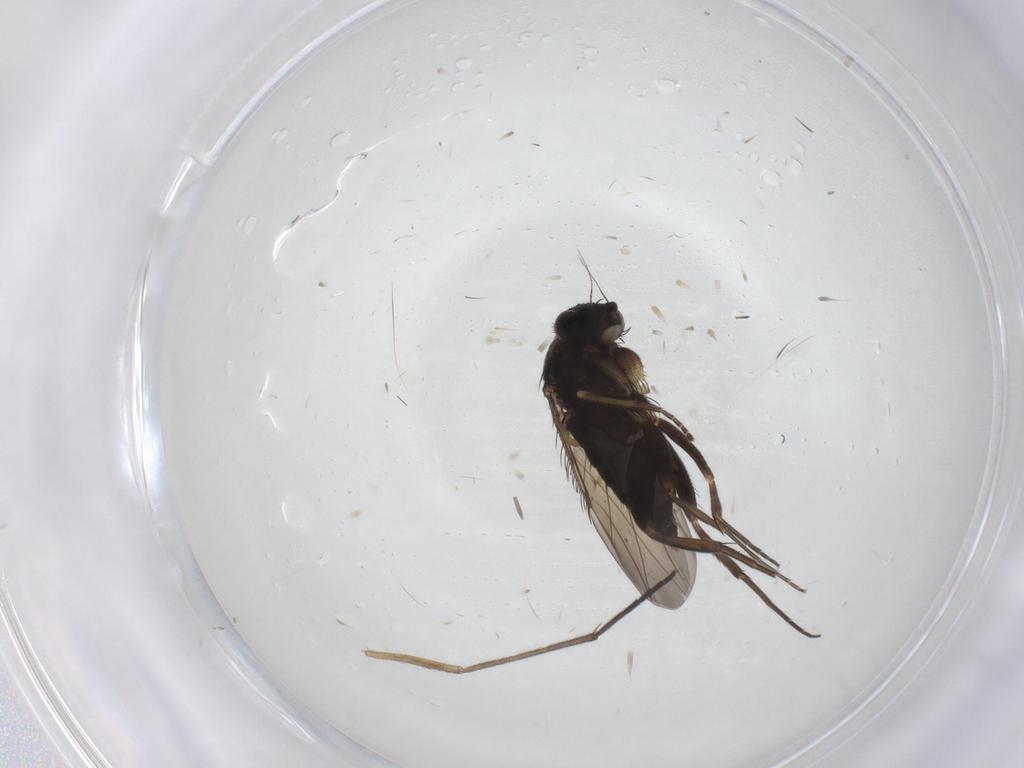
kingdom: Animalia
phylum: Arthropoda
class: Insecta
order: Diptera
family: Phoridae
